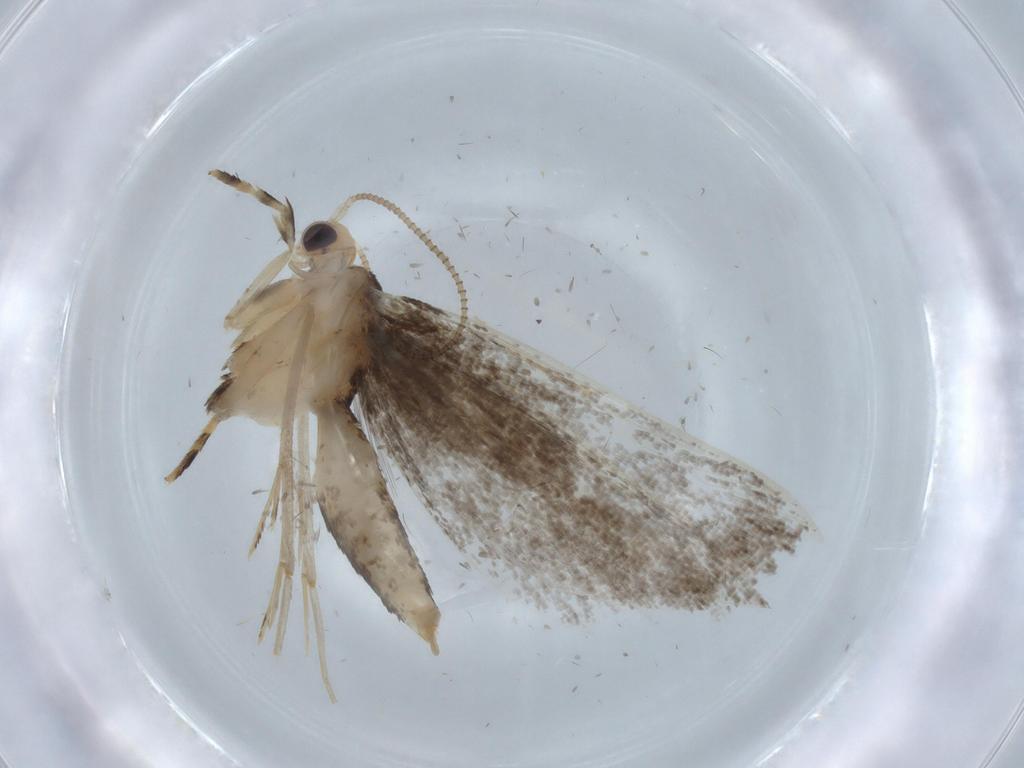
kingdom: Animalia
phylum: Arthropoda
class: Insecta
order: Lepidoptera
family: Tineidae
